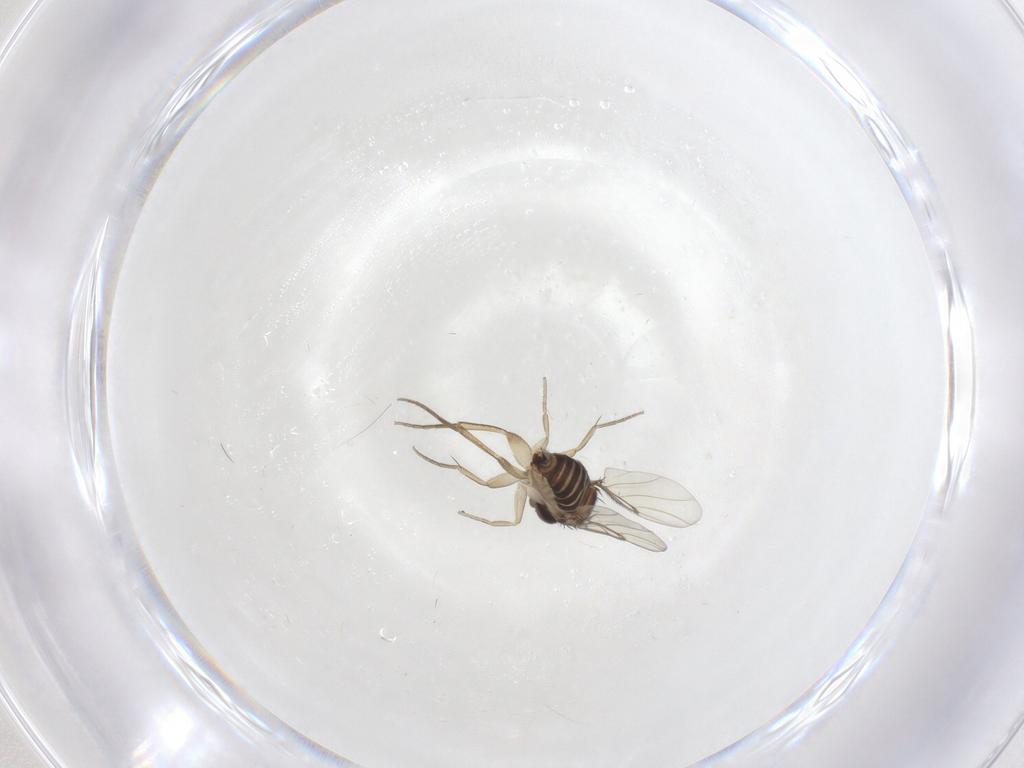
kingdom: Animalia
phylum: Arthropoda
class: Insecta
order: Diptera
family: Phoridae
